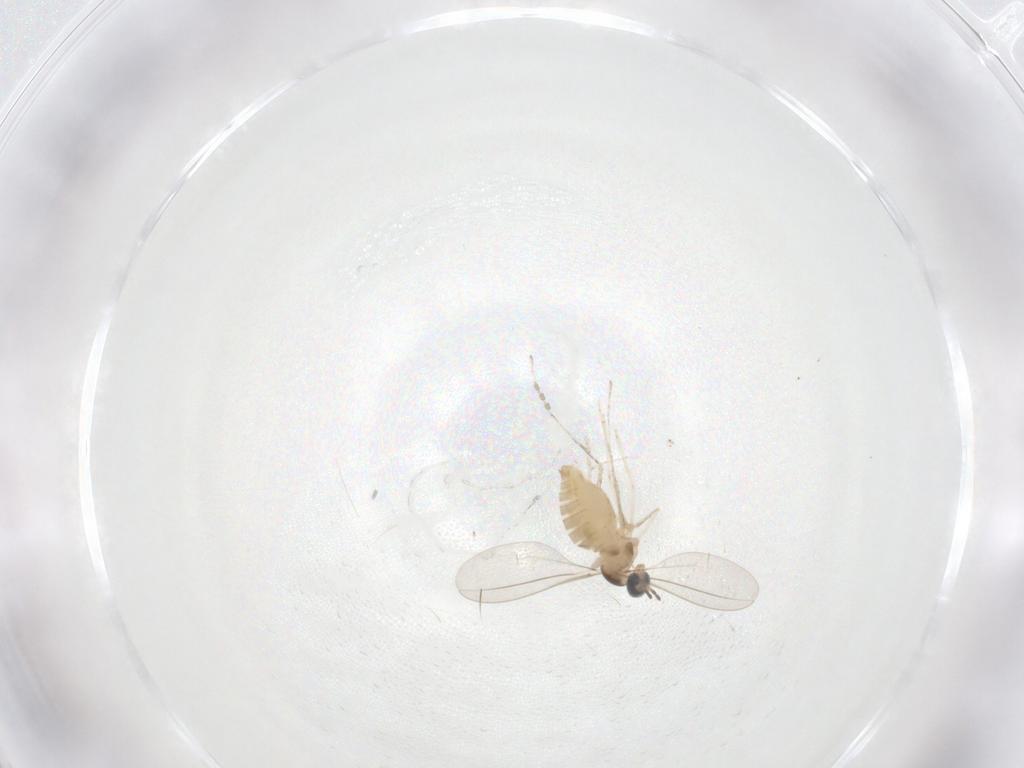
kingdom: Animalia
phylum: Arthropoda
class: Insecta
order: Diptera
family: Cecidomyiidae
